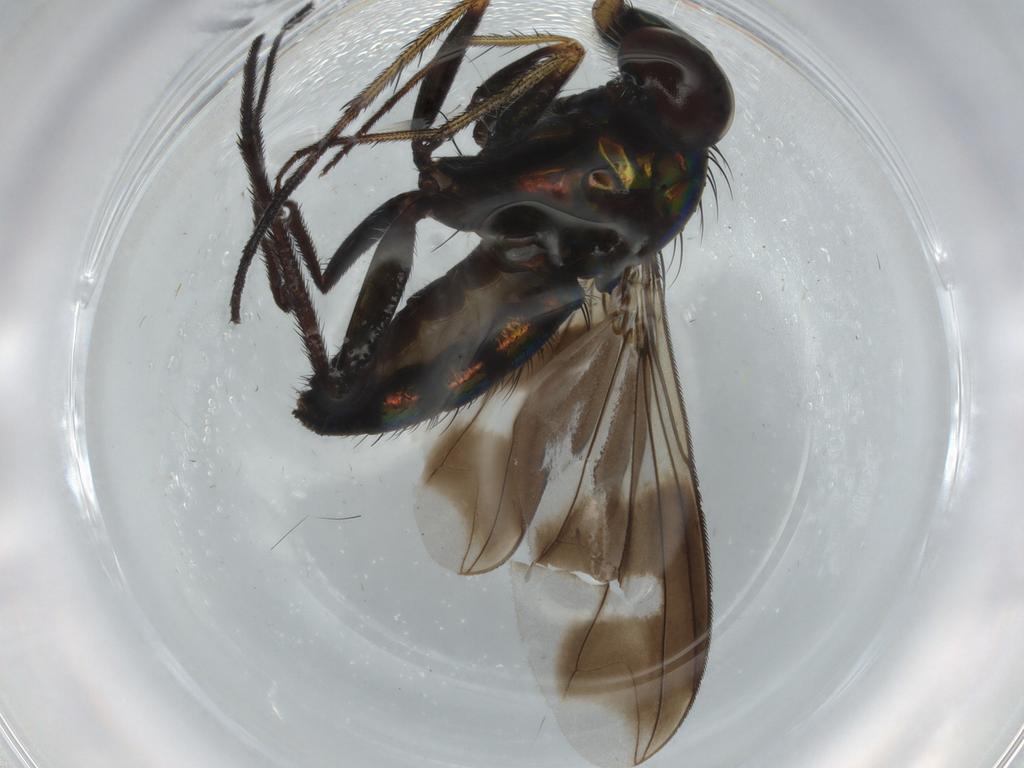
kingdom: Animalia
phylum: Arthropoda
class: Insecta
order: Diptera
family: Dolichopodidae
